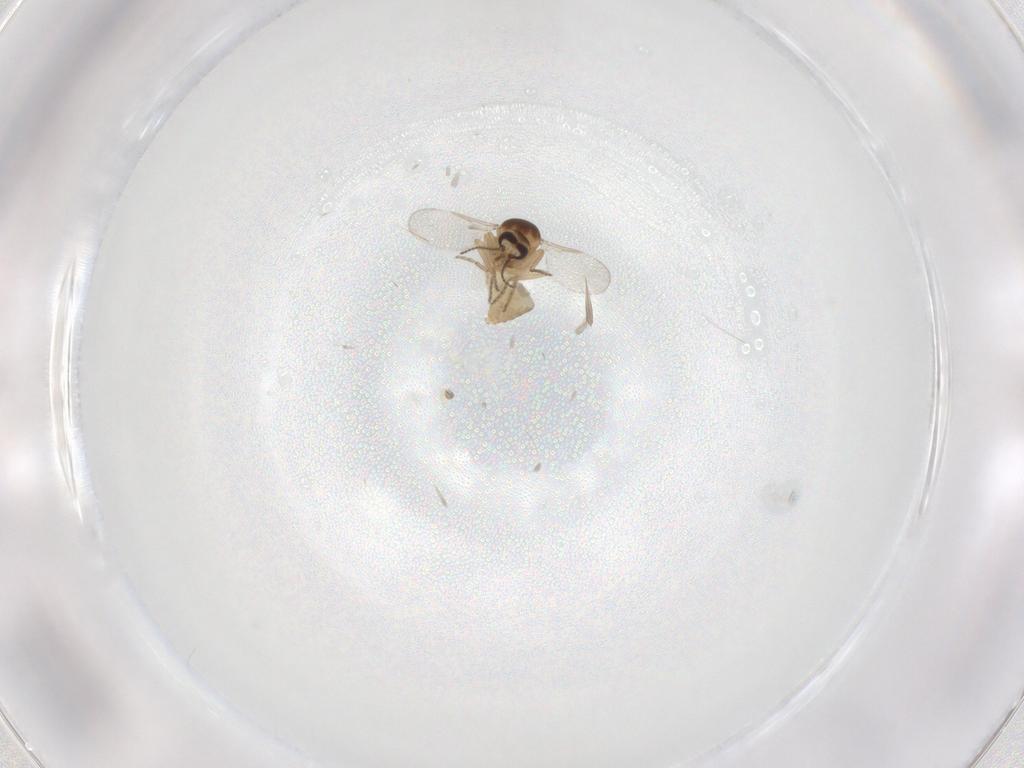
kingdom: Animalia
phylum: Arthropoda
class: Insecta
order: Diptera
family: Ceratopogonidae
